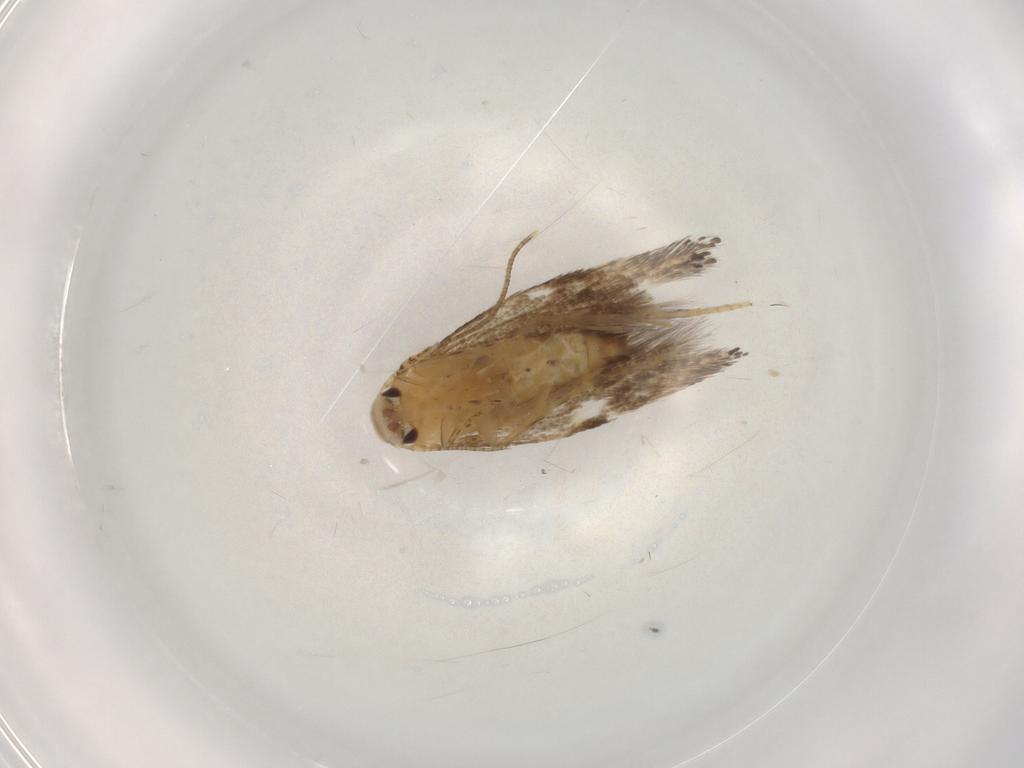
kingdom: Animalia
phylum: Arthropoda
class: Insecta
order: Lepidoptera
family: Elachistidae
